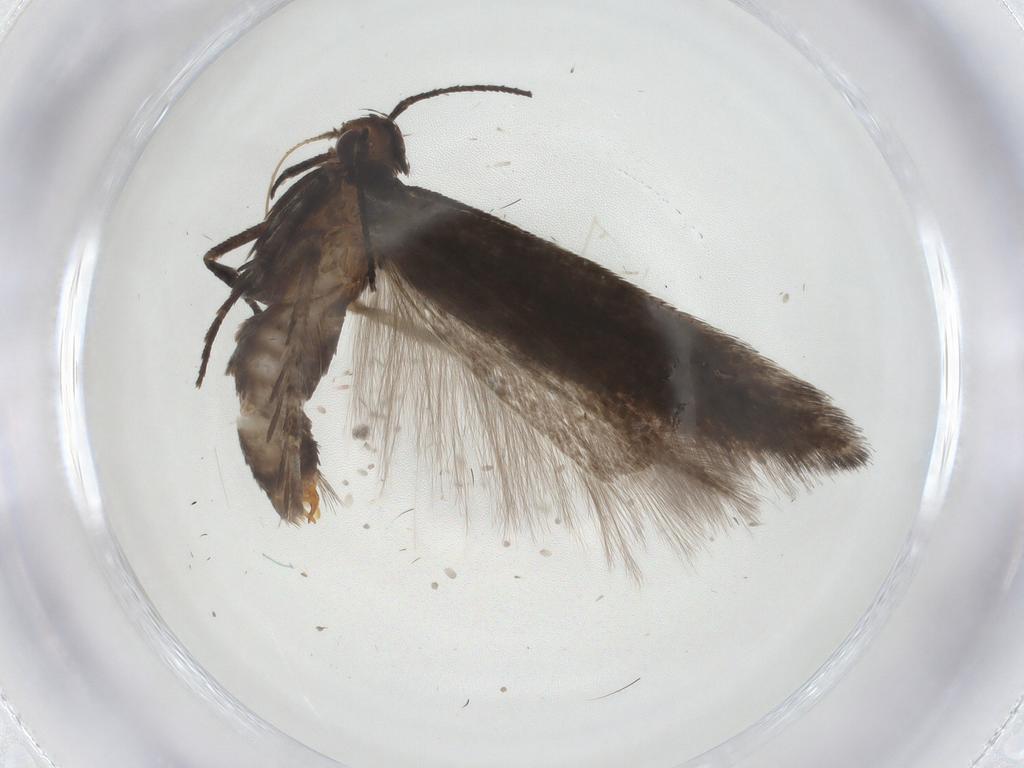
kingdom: Animalia
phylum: Arthropoda
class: Insecta
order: Lepidoptera
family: Gelechiidae
